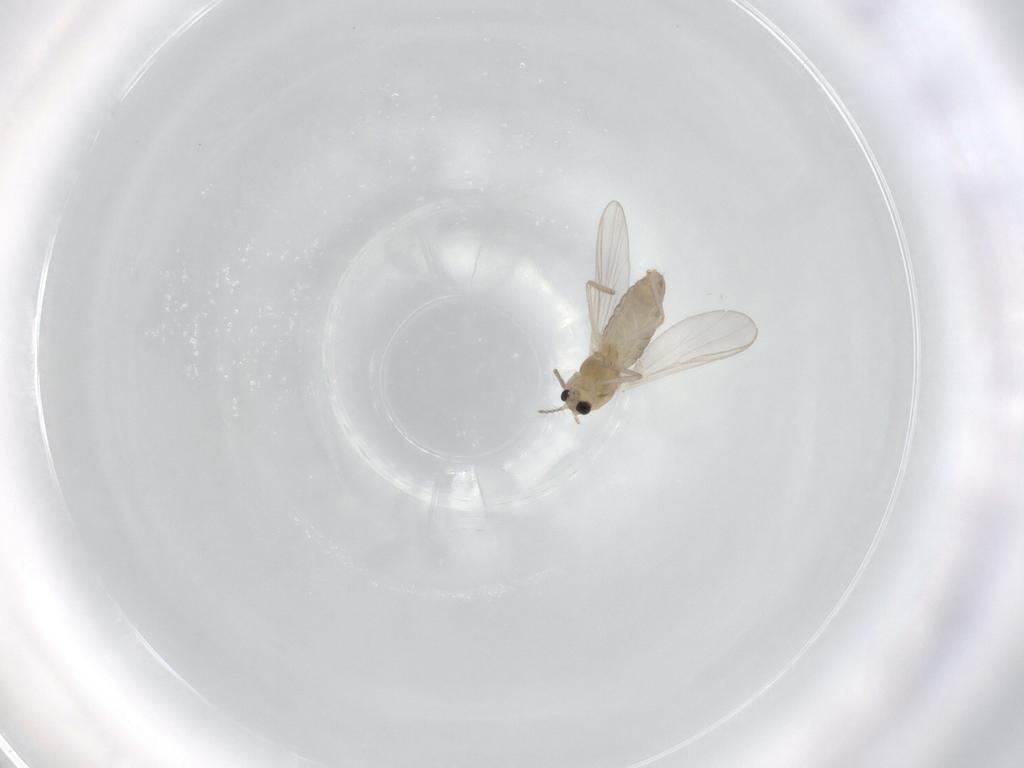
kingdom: Animalia
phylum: Arthropoda
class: Insecta
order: Diptera
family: Chironomidae
